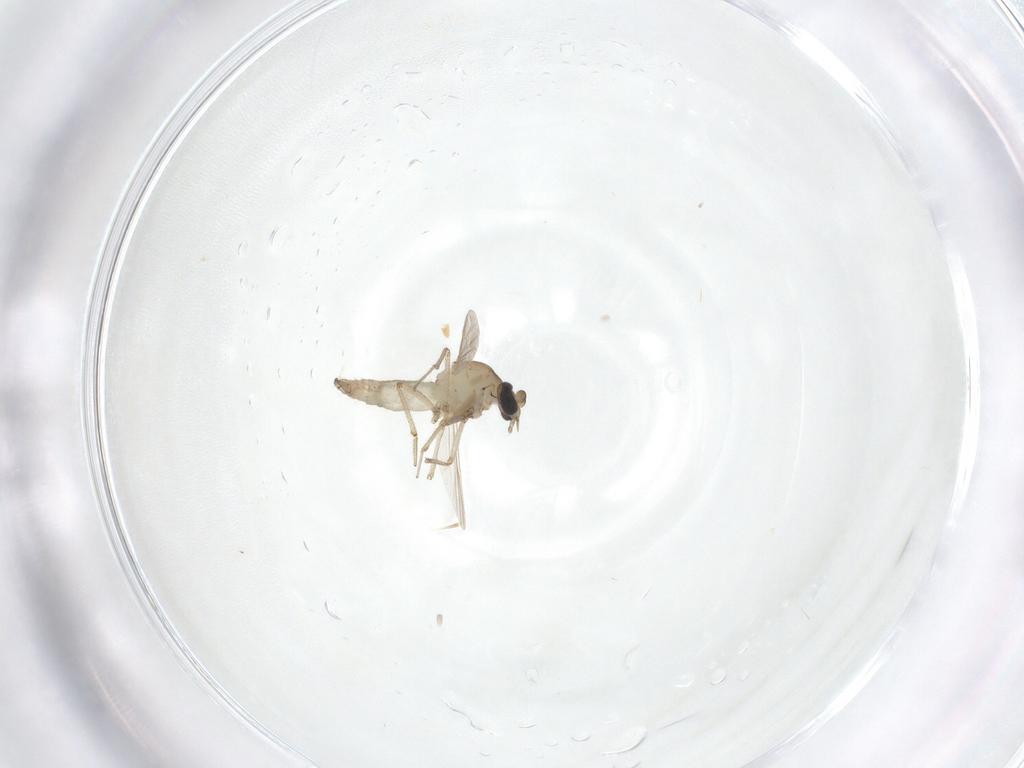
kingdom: Animalia
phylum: Arthropoda
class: Insecta
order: Diptera
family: Ceratopogonidae
